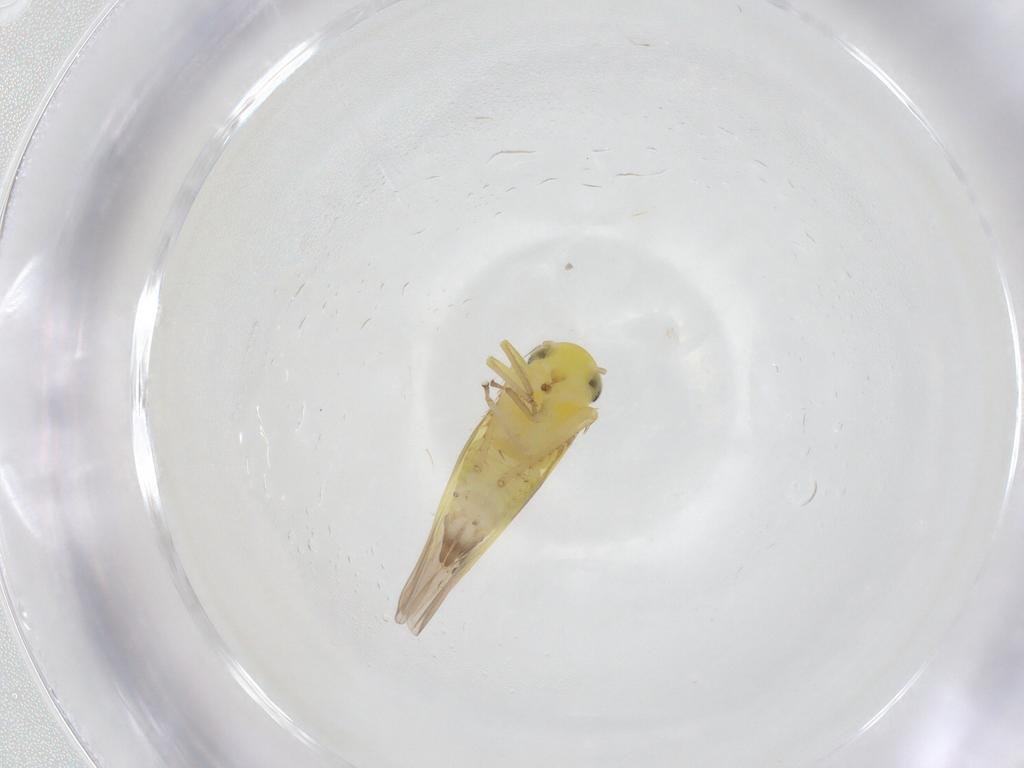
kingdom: Animalia
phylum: Arthropoda
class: Insecta
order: Hemiptera
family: Cicadellidae
